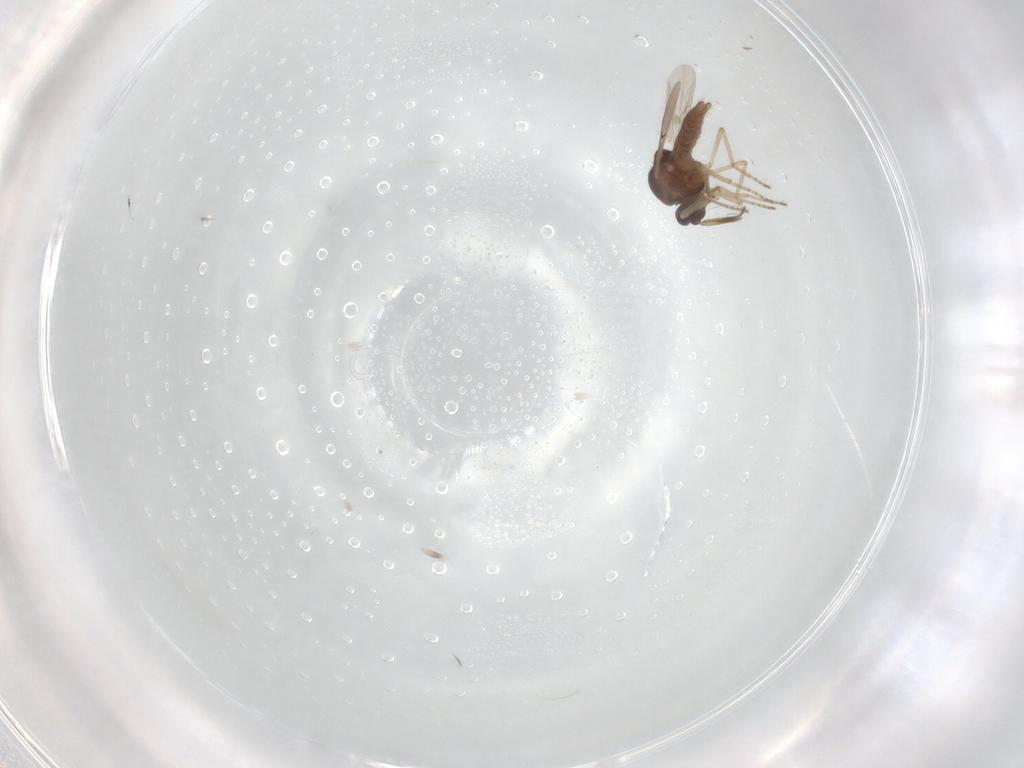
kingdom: Animalia
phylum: Arthropoda
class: Insecta
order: Diptera
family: Ceratopogonidae
